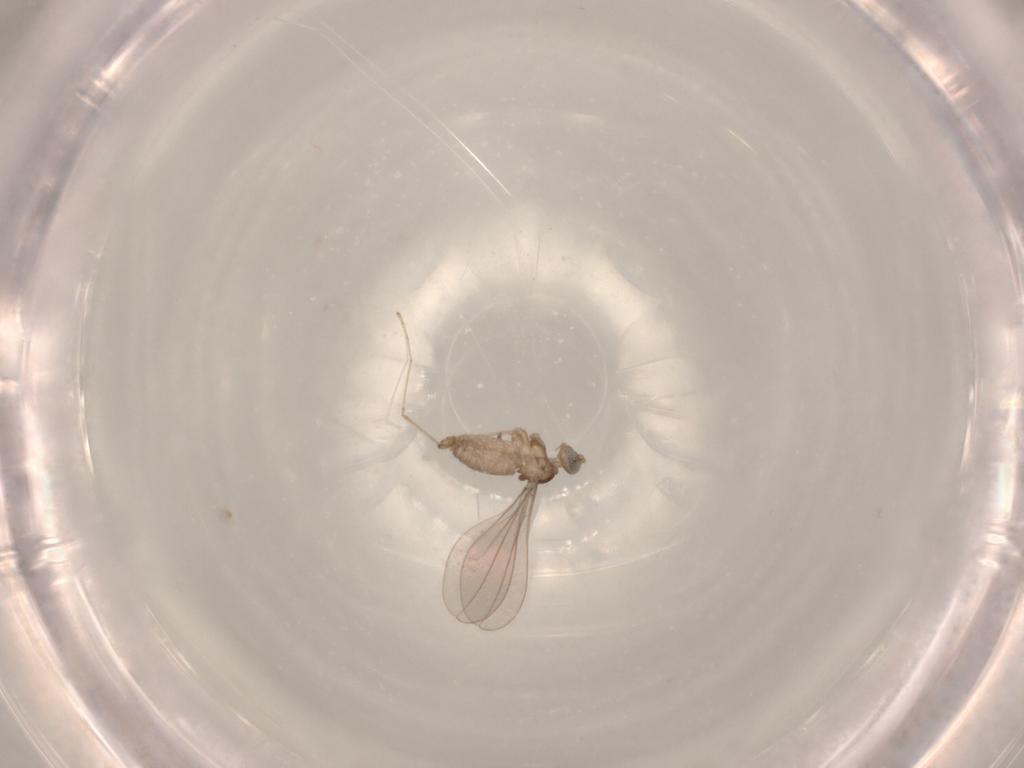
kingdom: Animalia
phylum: Arthropoda
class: Insecta
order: Diptera
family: Cecidomyiidae
